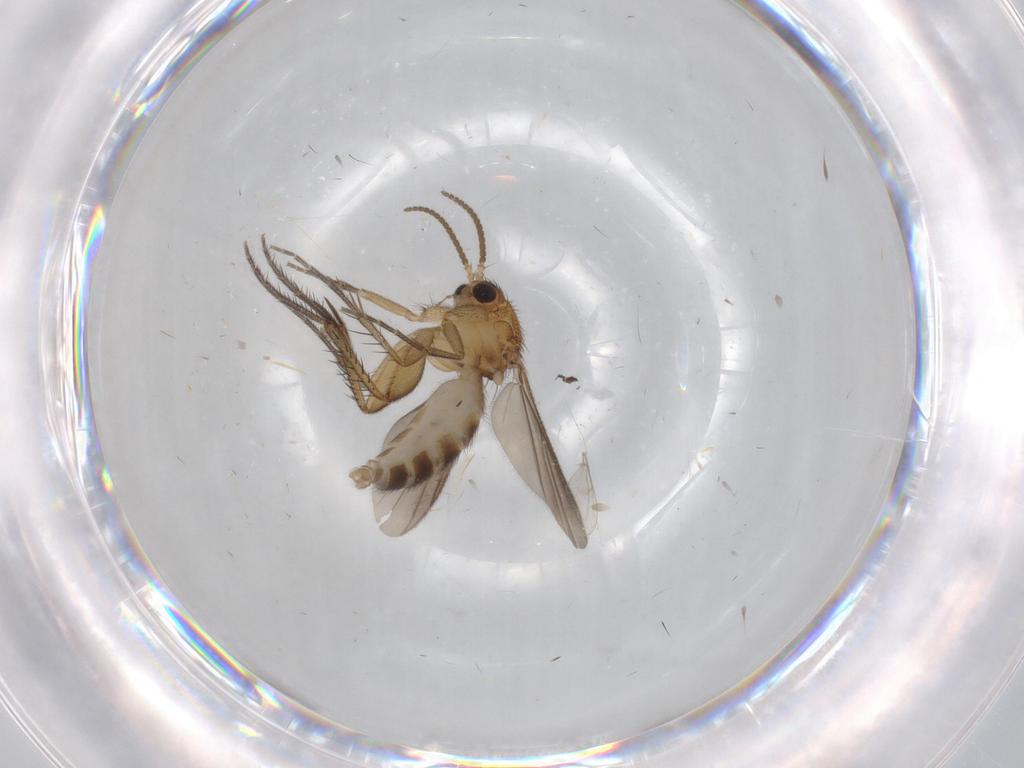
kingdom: Animalia
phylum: Arthropoda
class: Insecta
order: Diptera
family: Mycetophilidae
